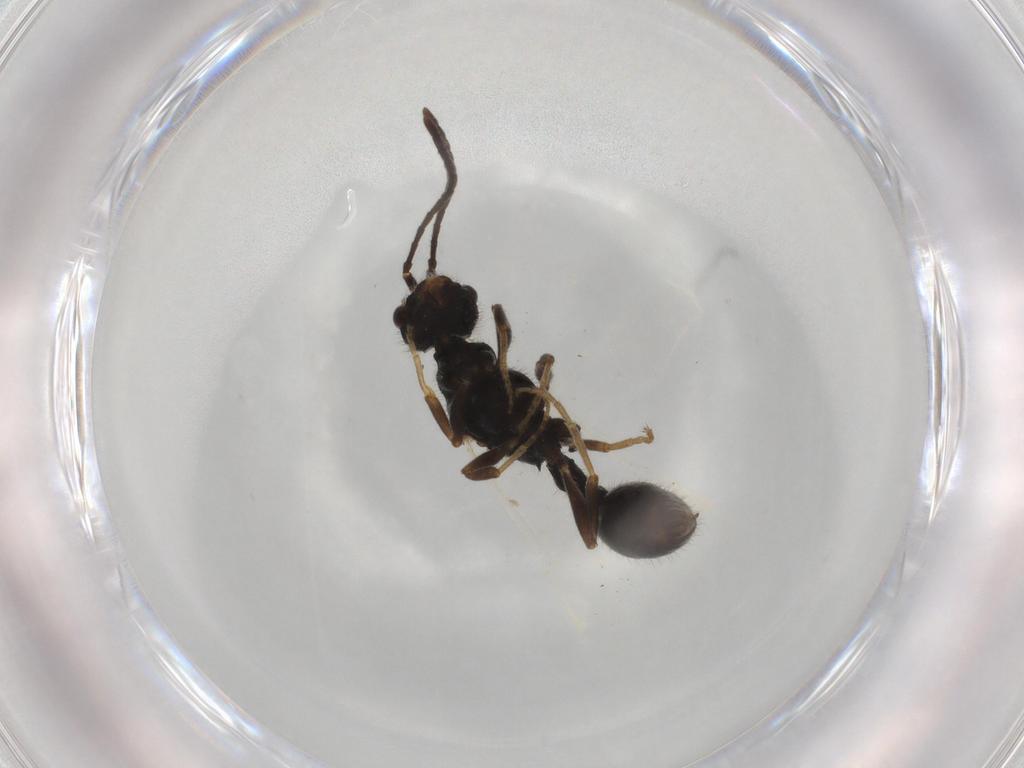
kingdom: Animalia
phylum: Arthropoda
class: Insecta
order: Hymenoptera
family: Formicidae
